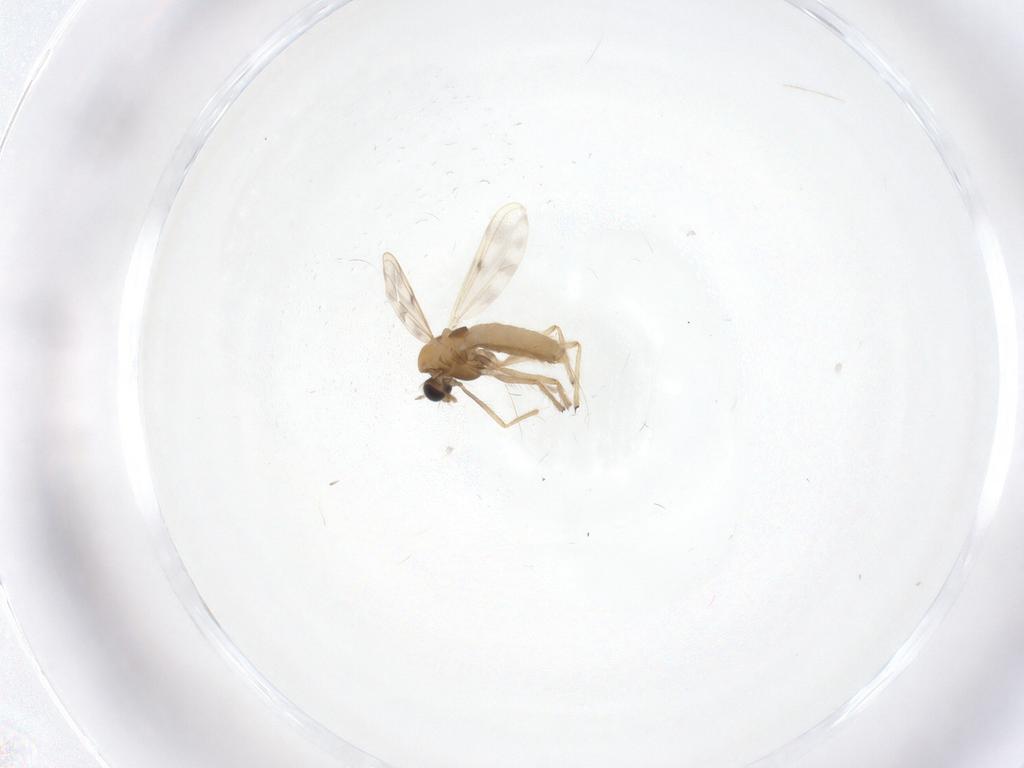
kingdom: Animalia
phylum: Arthropoda
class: Insecta
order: Diptera
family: Chironomidae
